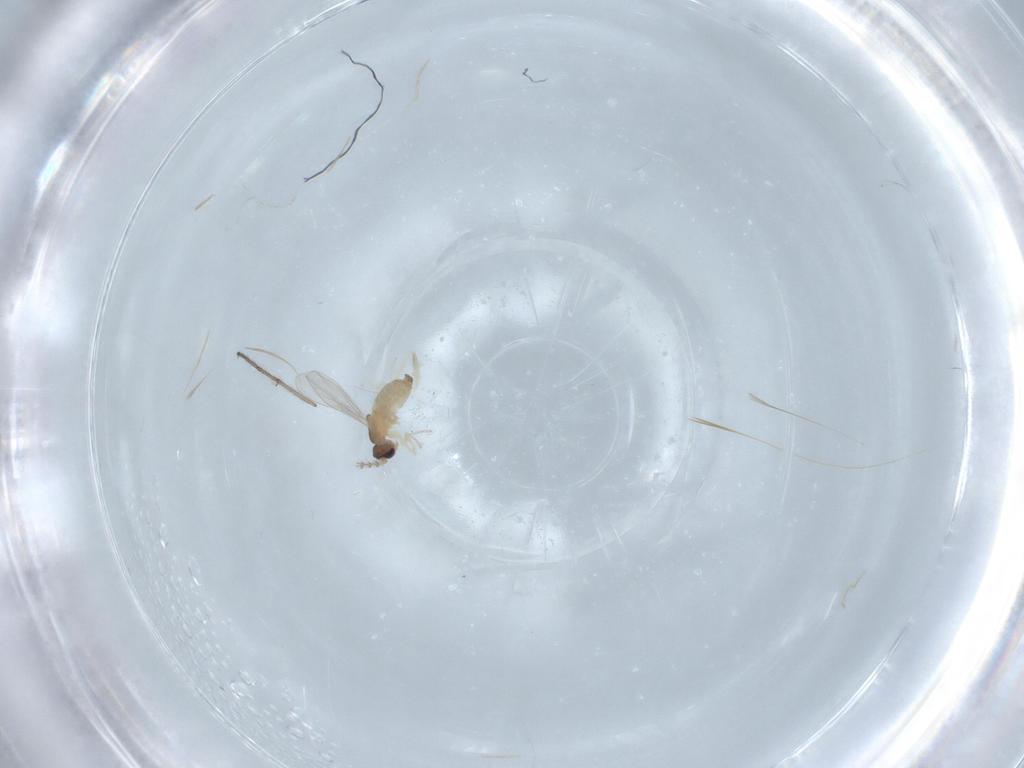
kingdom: Animalia
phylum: Arthropoda
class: Insecta
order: Diptera
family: Cecidomyiidae
